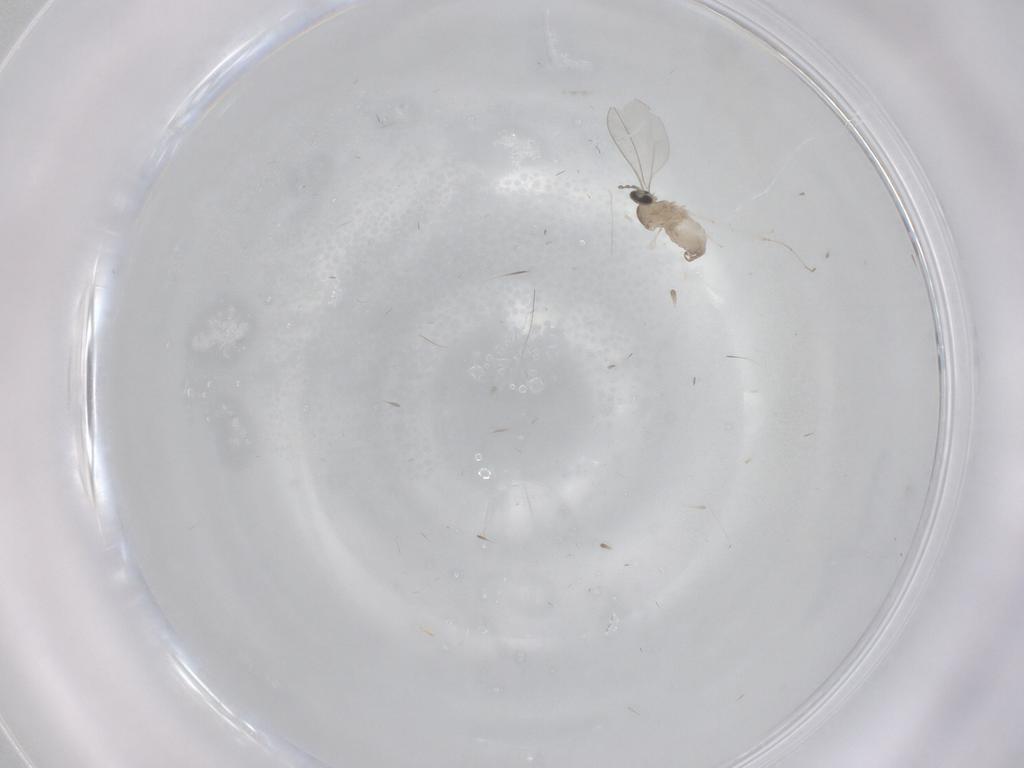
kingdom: Animalia
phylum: Arthropoda
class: Insecta
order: Diptera
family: Cecidomyiidae
